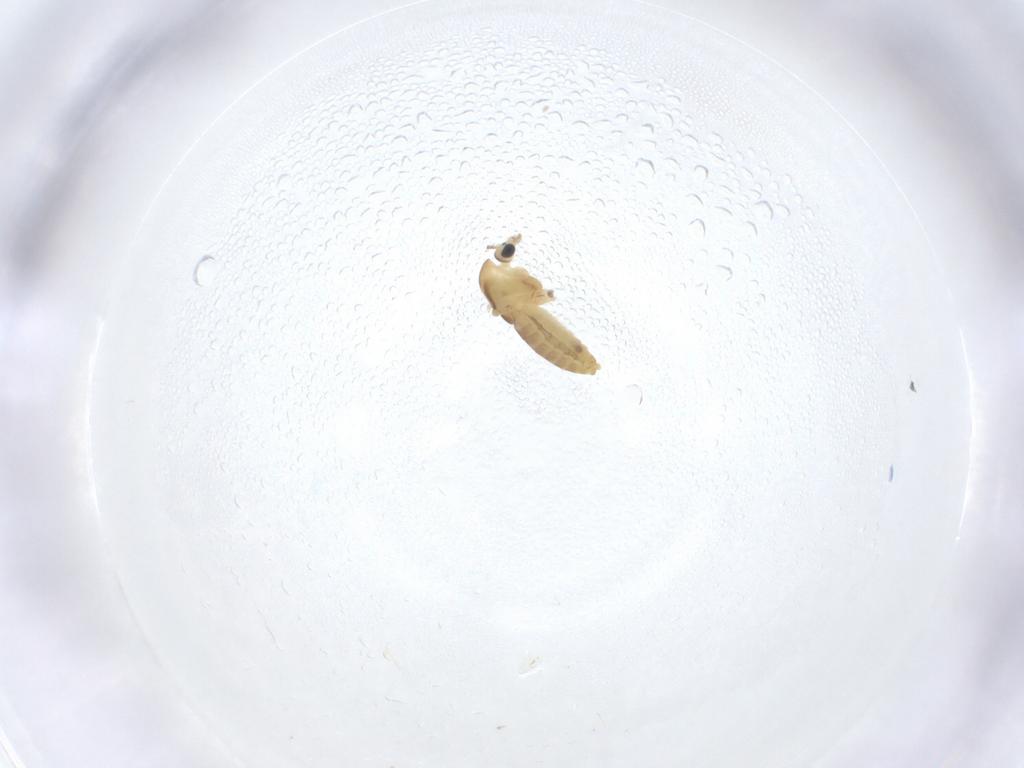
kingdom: Animalia
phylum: Arthropoda
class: Insecta
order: Diptera
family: Chironomidae
